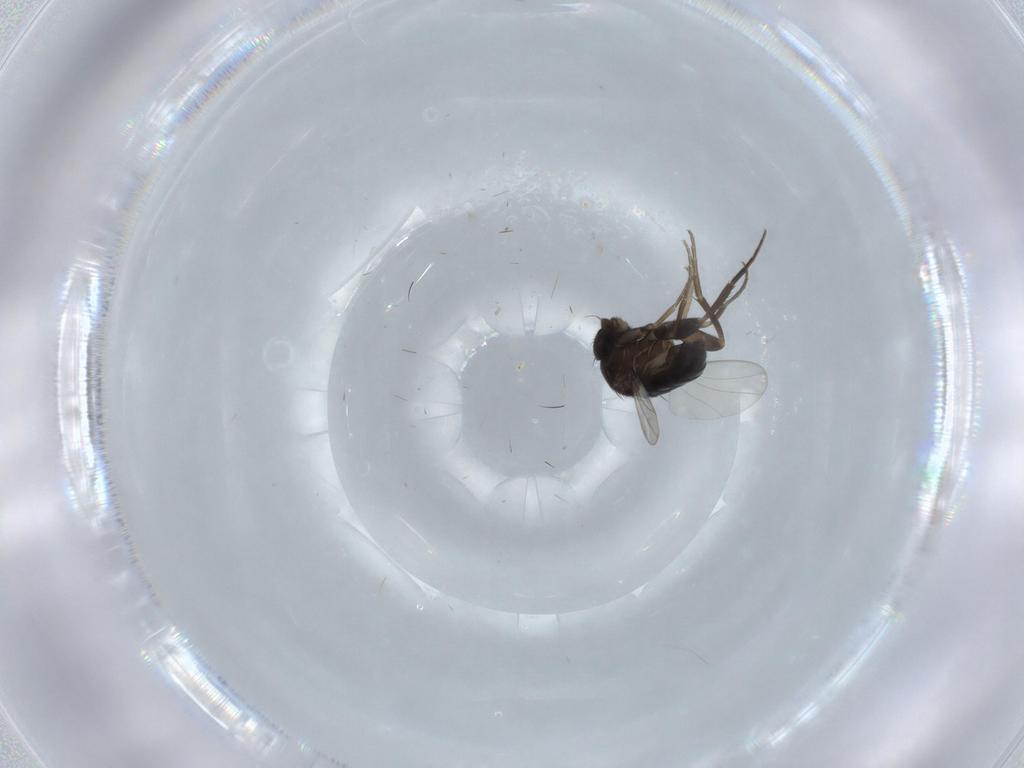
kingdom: Animalia
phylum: Arthropoda
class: Insecta
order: Diptera
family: Phoridae
